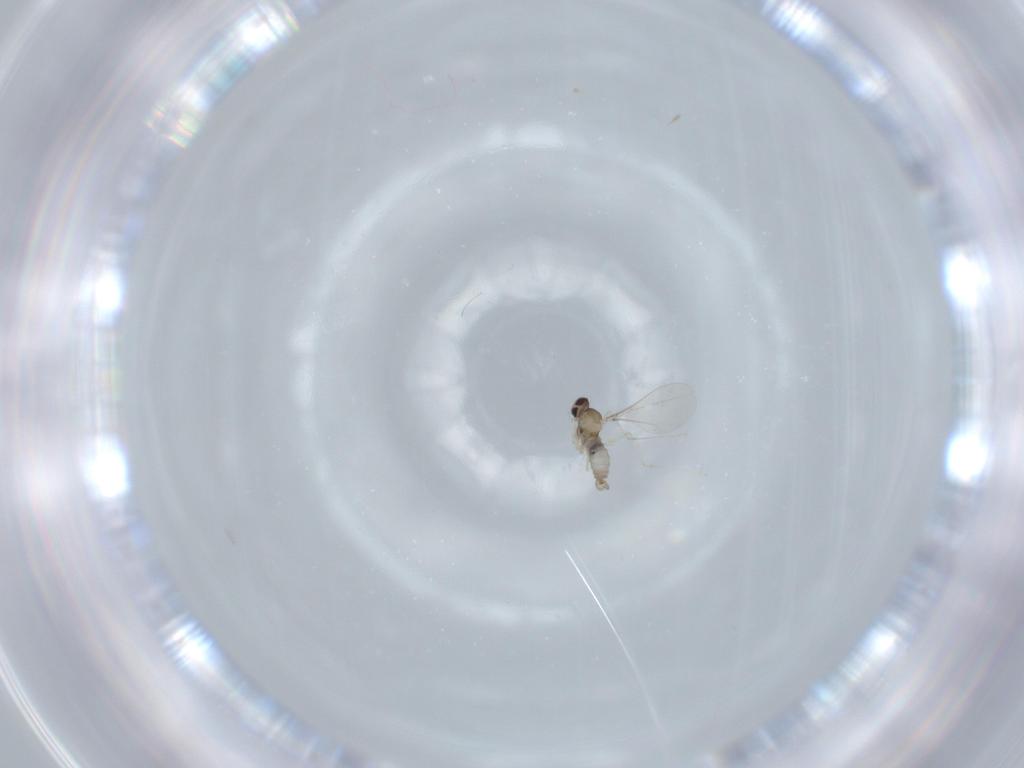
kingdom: Animalia
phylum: Arthropoda
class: Insecta
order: Diptera
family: Cecidomyiidae
